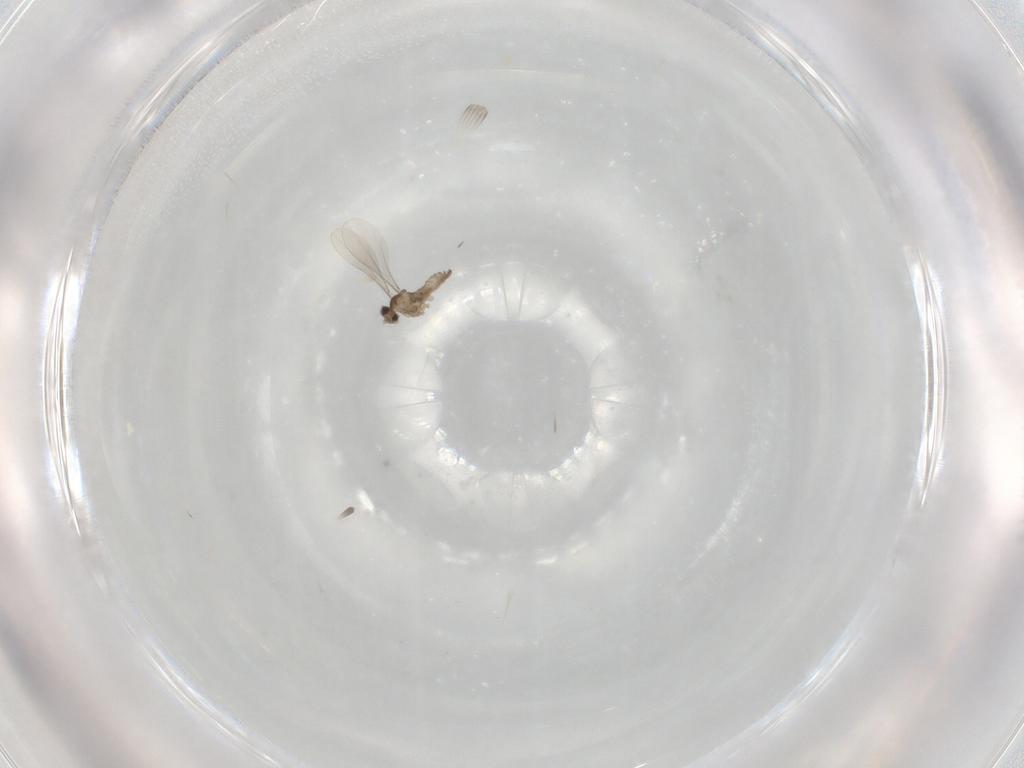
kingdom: Animalia
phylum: Arthropoda
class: Insecta
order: Diptera
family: Cecidomyiidae
